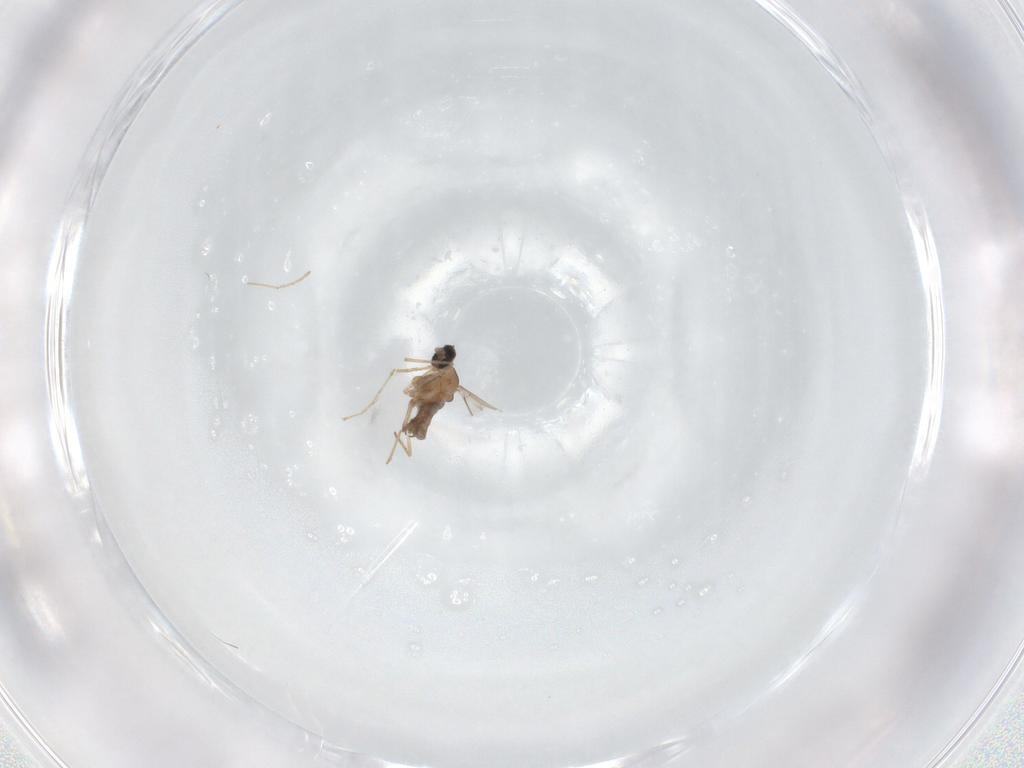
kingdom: Animalia
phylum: Arthropoda
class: Insecta
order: Diptera
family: Cecidomyiidae
